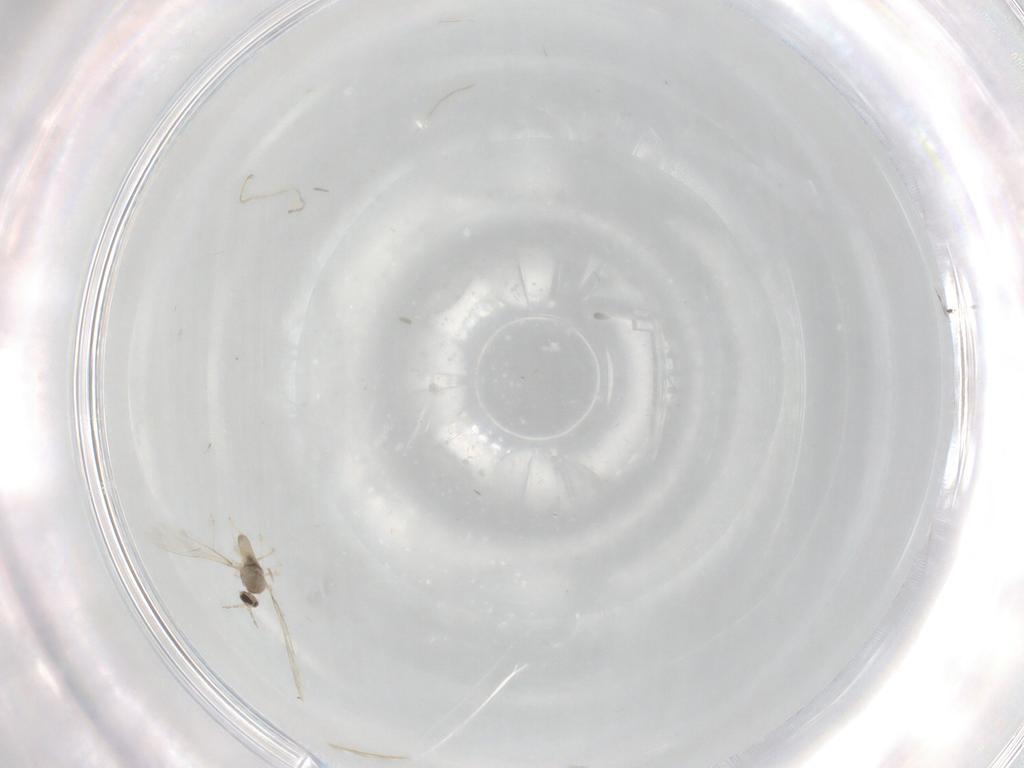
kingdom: Animalia
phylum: Arthropoda
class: Insecta
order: Diptera
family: Cecidomyiidae
